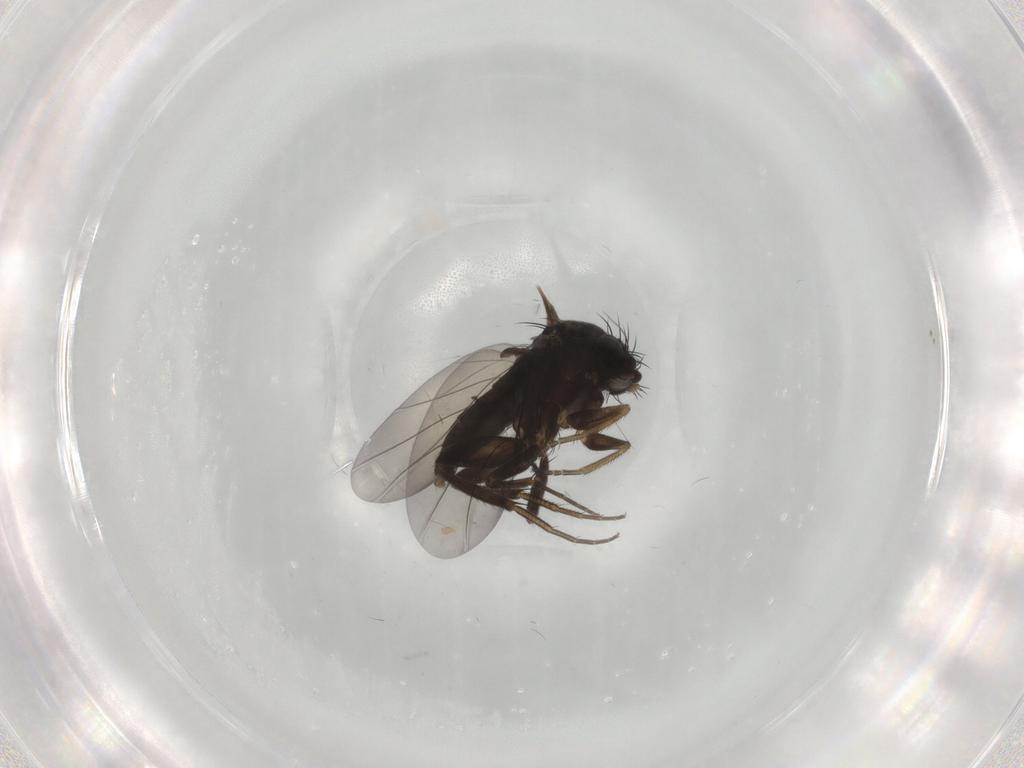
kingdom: Animalia
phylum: Arthropoda
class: Insecta
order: Diptera
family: Phoridae
